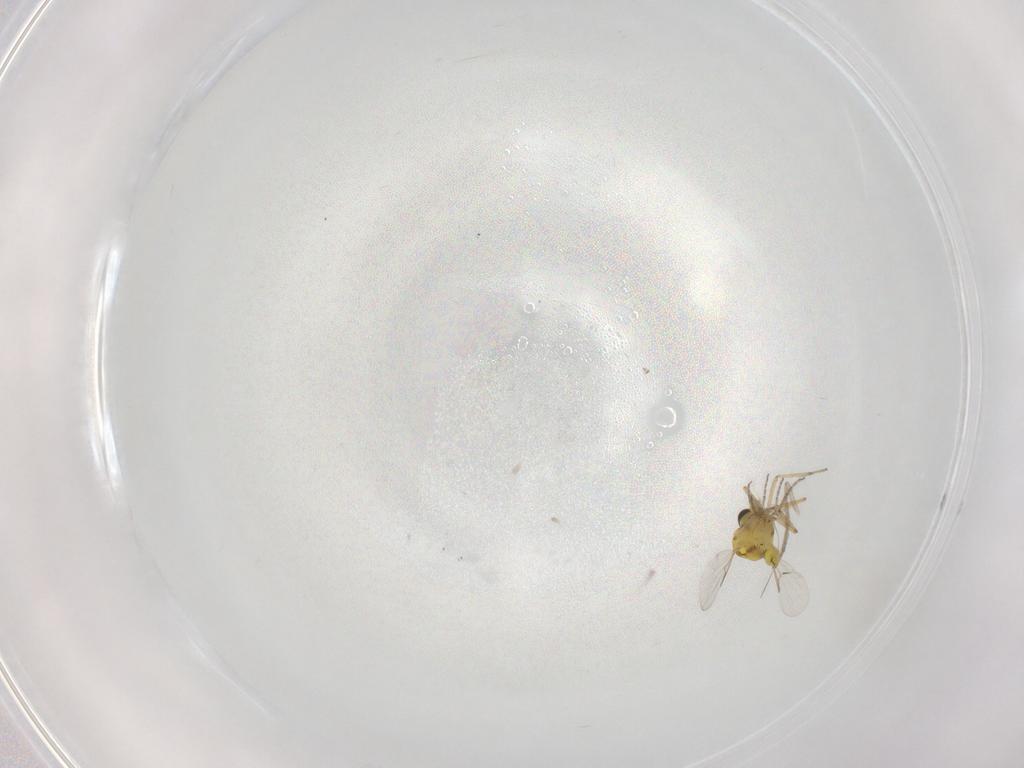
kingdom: Animalia
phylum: Arthropoda
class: Insecta
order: Diptera
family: Ceratopogonidae
